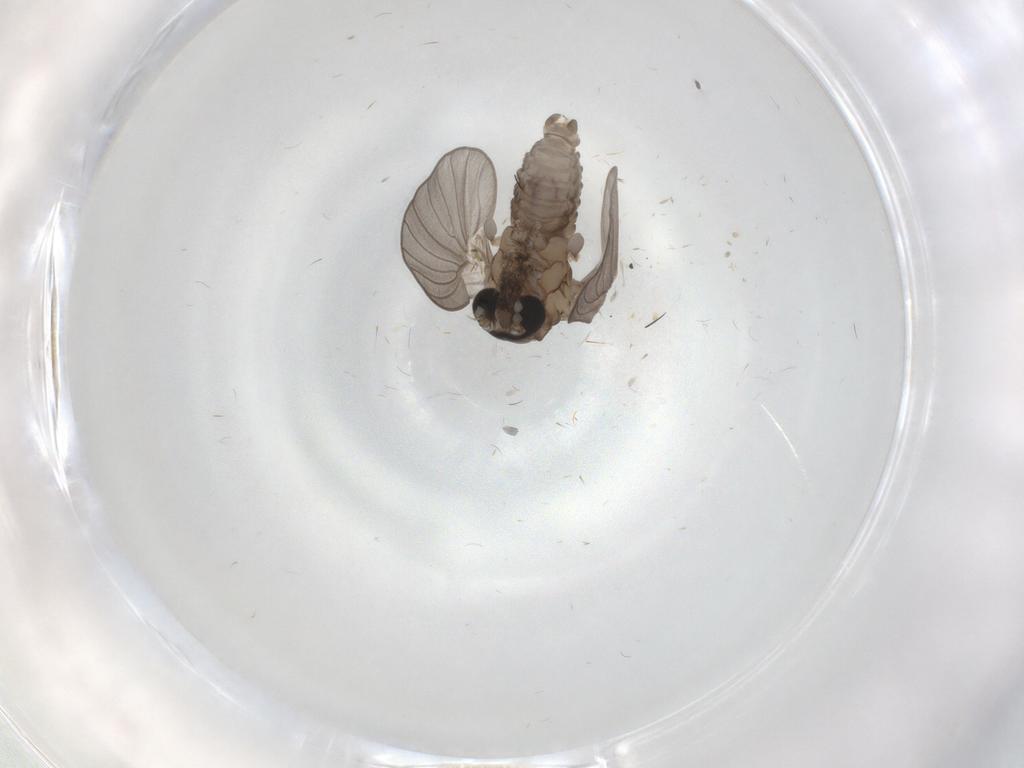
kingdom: Animalia
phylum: Arthropoda
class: Insecta
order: Diptera
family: Psychodidae
